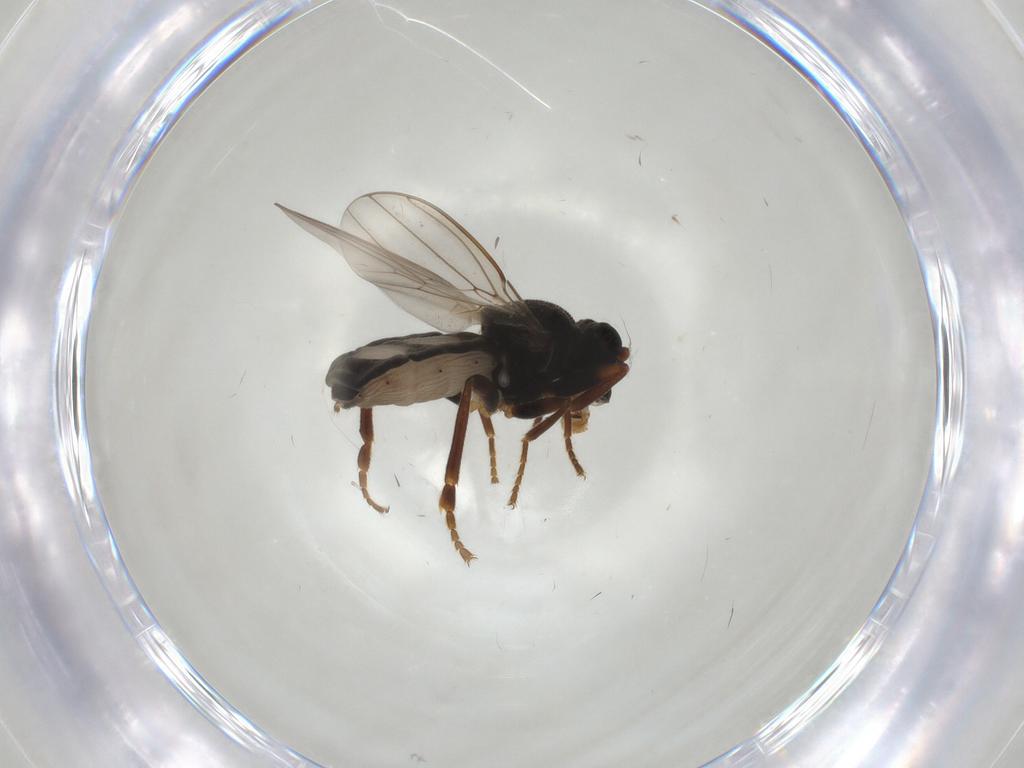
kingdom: Animalia
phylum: Arthropoda
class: Insecta
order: Diptera
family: Sphaeroceridae
